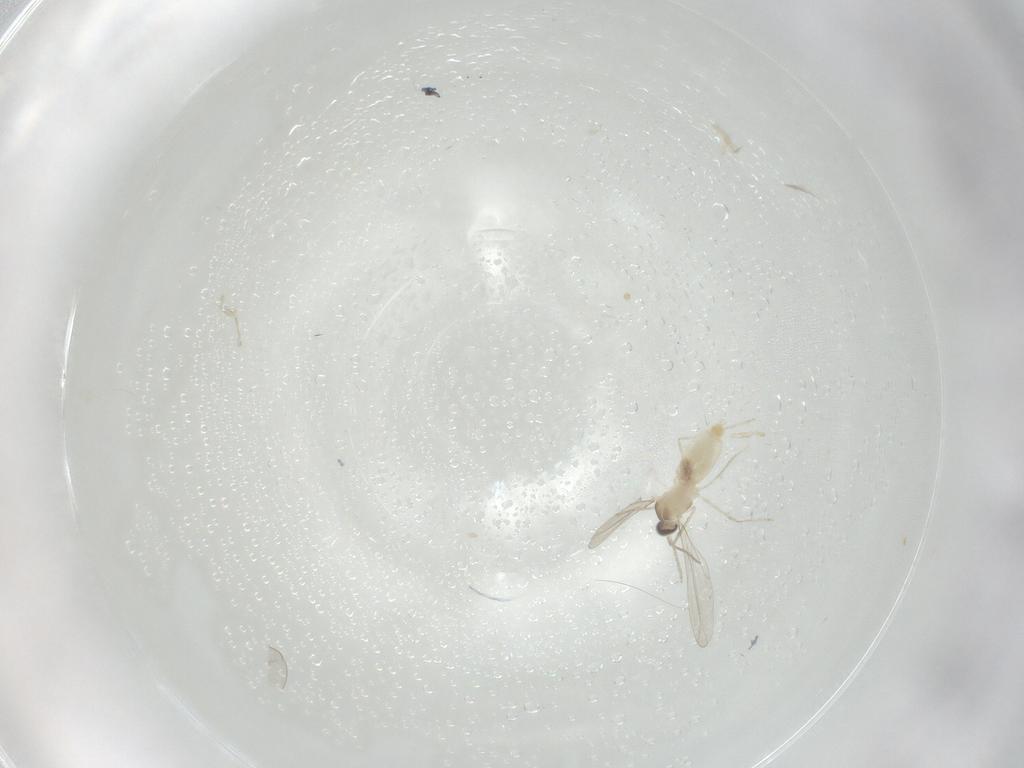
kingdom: Animalia
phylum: Arthropoda
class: Insecta
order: Diptera
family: Cecidomyiidae
